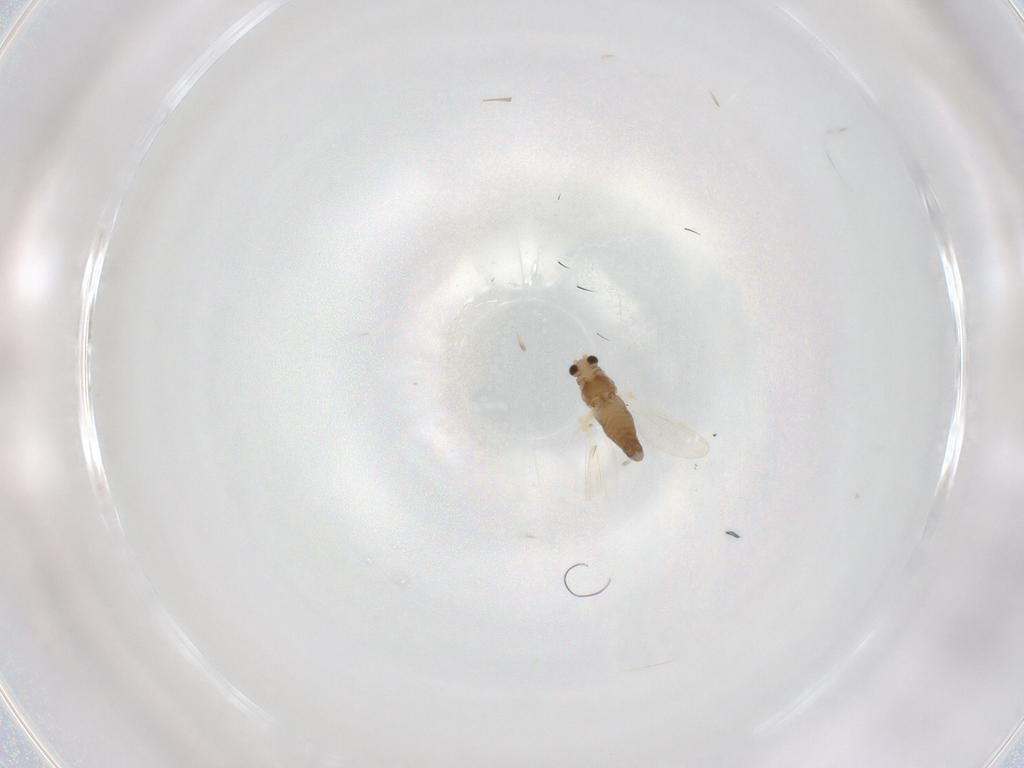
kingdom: Animalia
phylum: Arthropoda
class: Insecta
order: Diptera
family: Chironomidae
